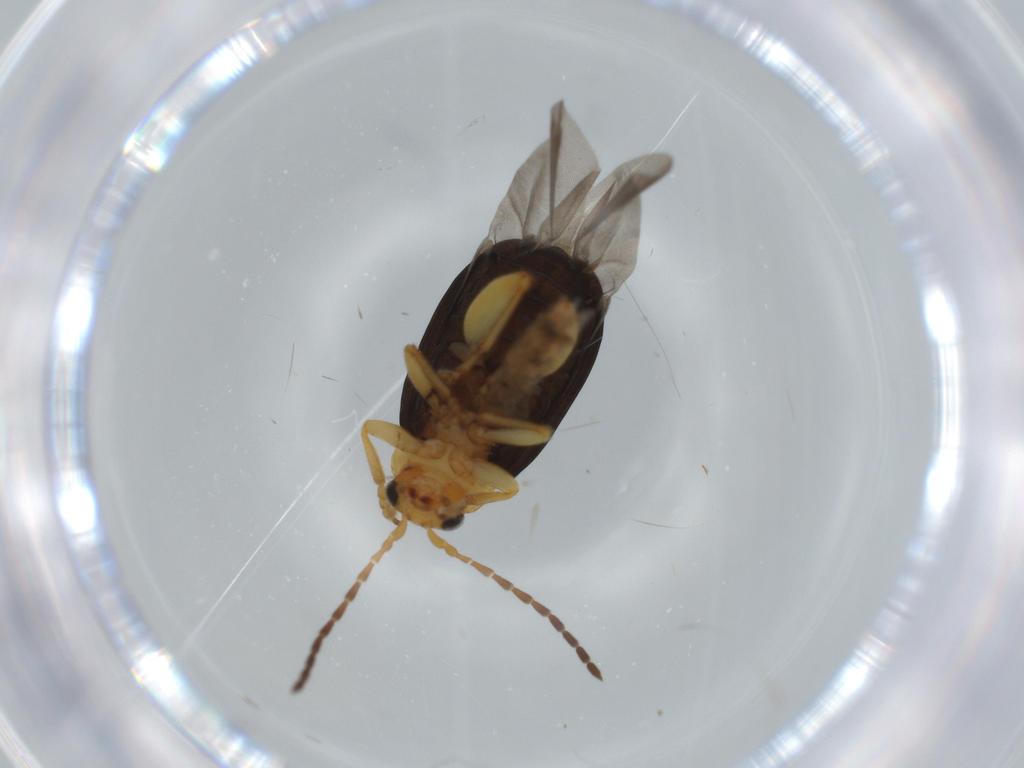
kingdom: Animalia
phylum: Arthropoda
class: Insecta
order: Coleoptera
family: Chrysomelidae
